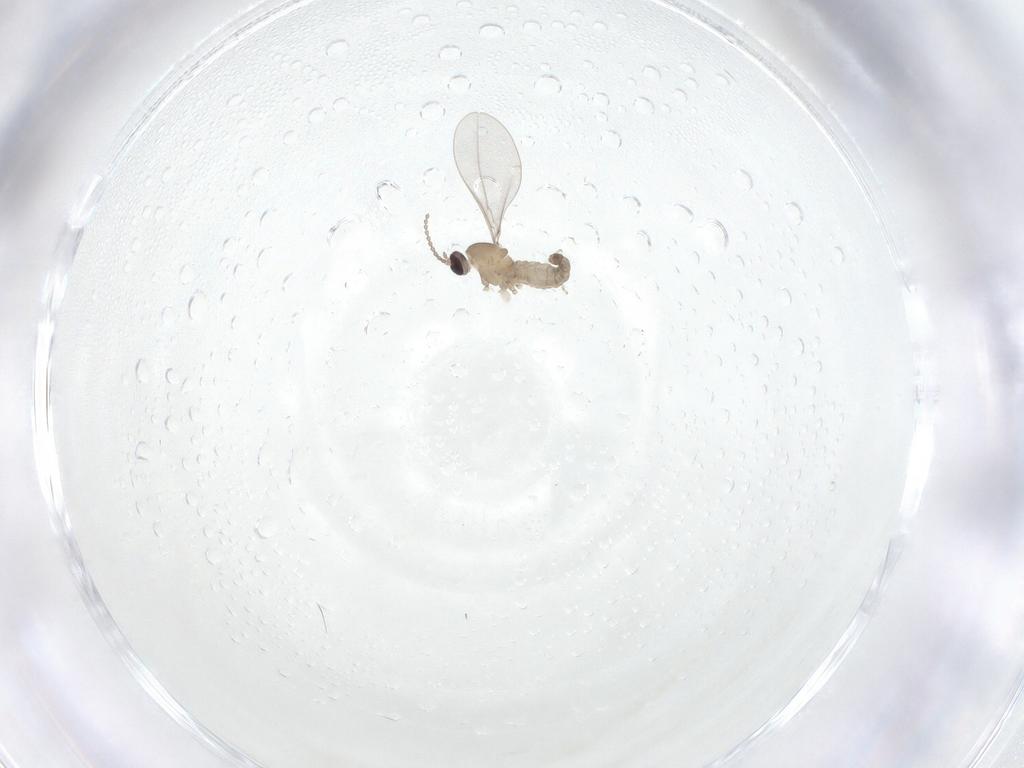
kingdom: Animalia
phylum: Arthropoda
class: Insecta
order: Diptera
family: Cecidomyiidae
